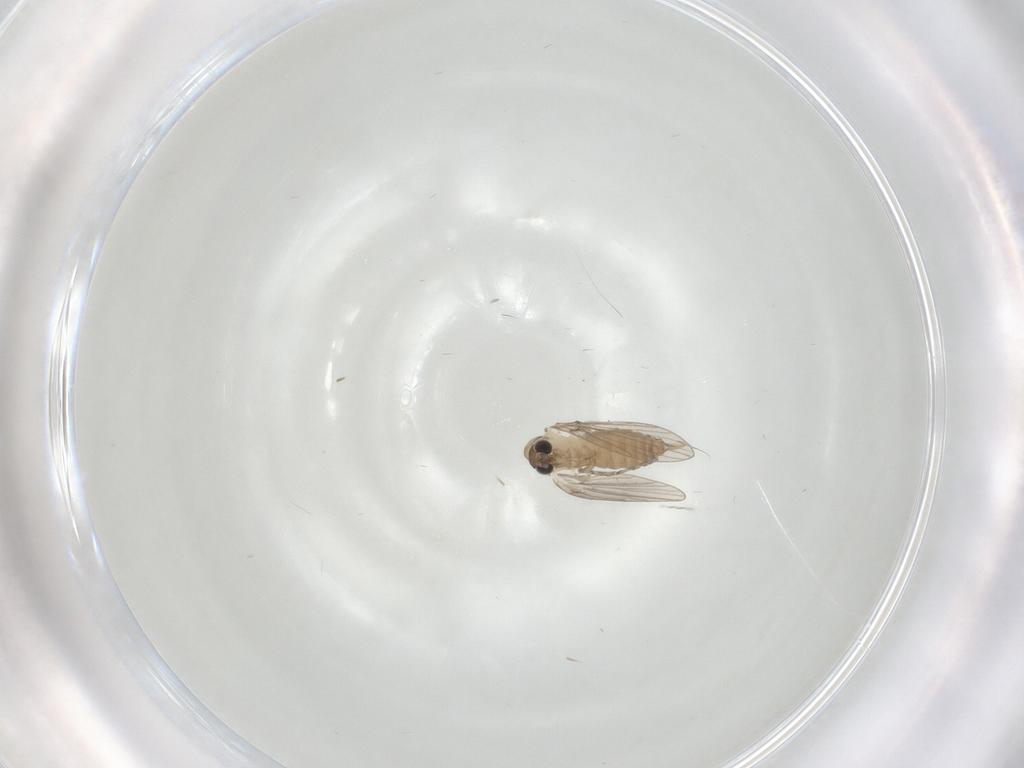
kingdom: Animalia
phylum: Arthropoda
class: Insecta
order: Diptera
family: Psychodidae
